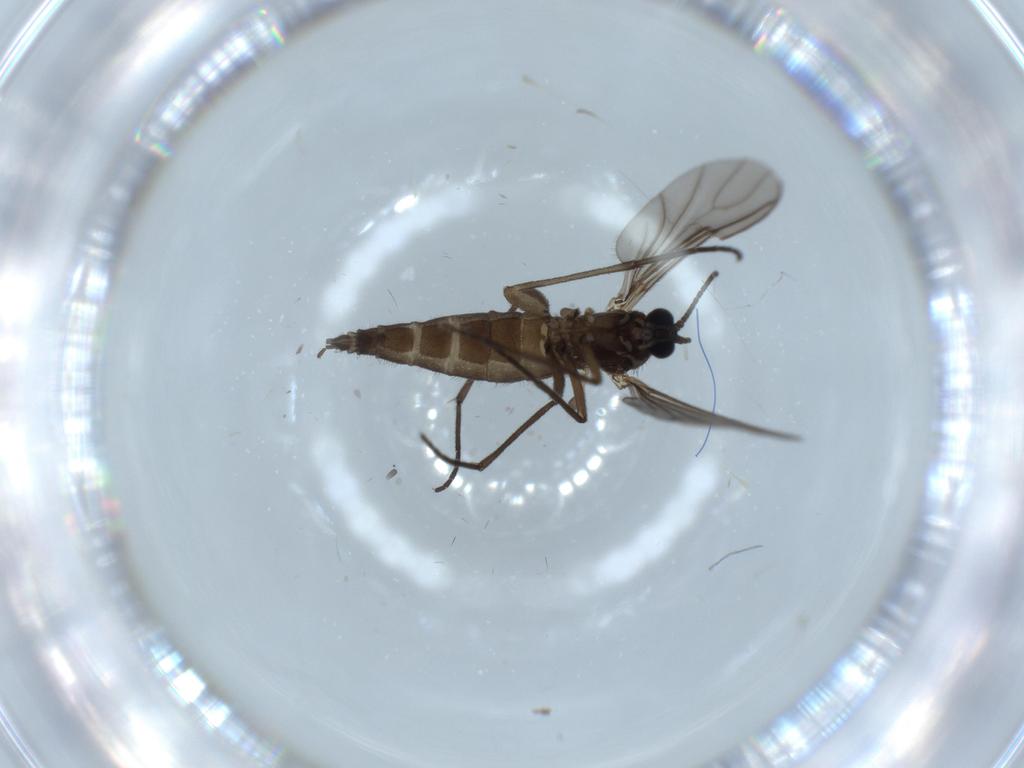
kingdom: Animalia
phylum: Arthropoda
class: Insecta
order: Diptera
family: Sciaridae
